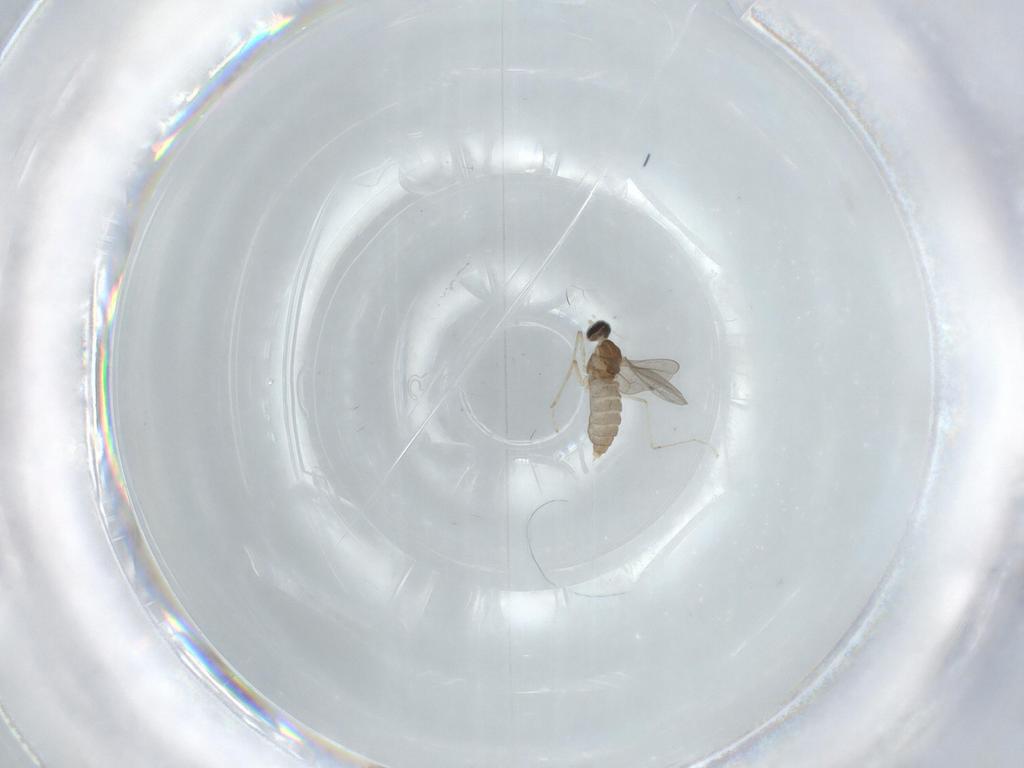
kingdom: Animalia
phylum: Arthropoda
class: Insecta
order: Diptera
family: Cecidomyiidae
